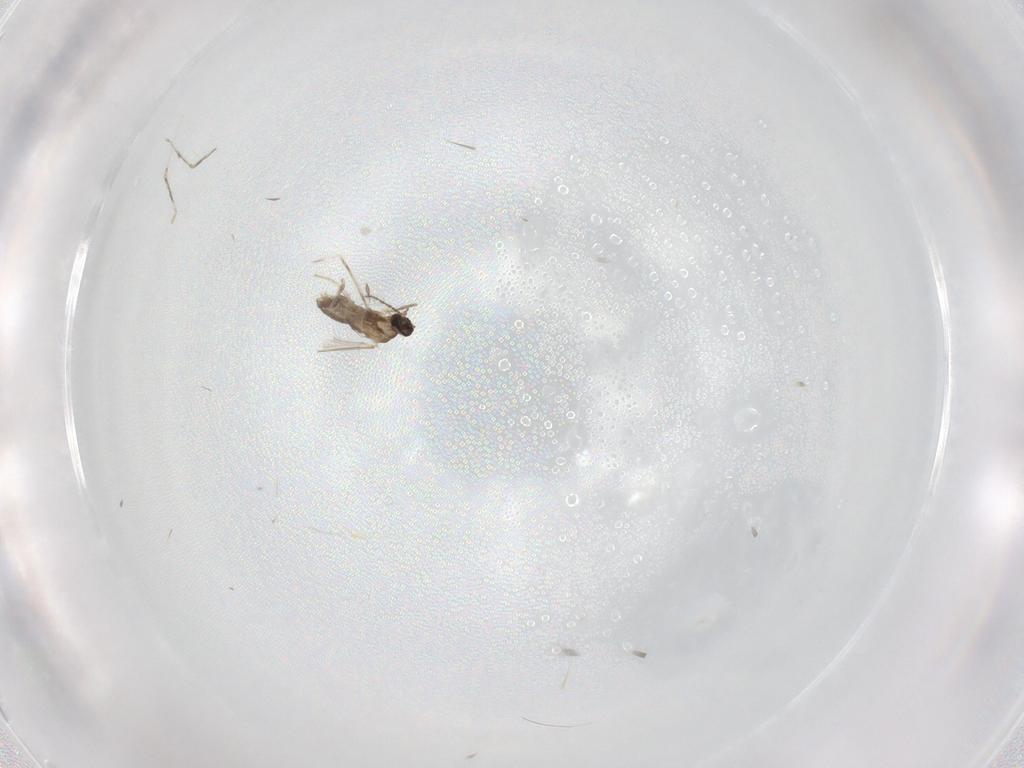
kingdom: Animalia
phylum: Arthropoda
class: Insecta
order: Diptera
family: Cecidomyiidae
